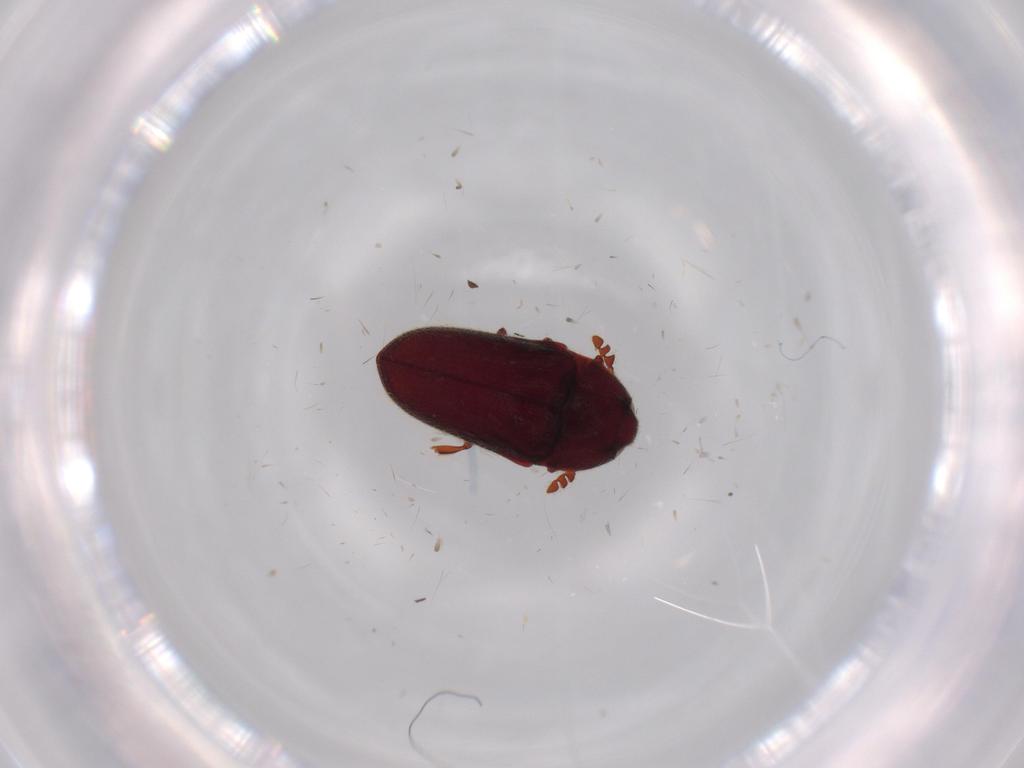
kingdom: Animalia
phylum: Arthropoda
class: Insecta
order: Coleoptera
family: Throscidae
